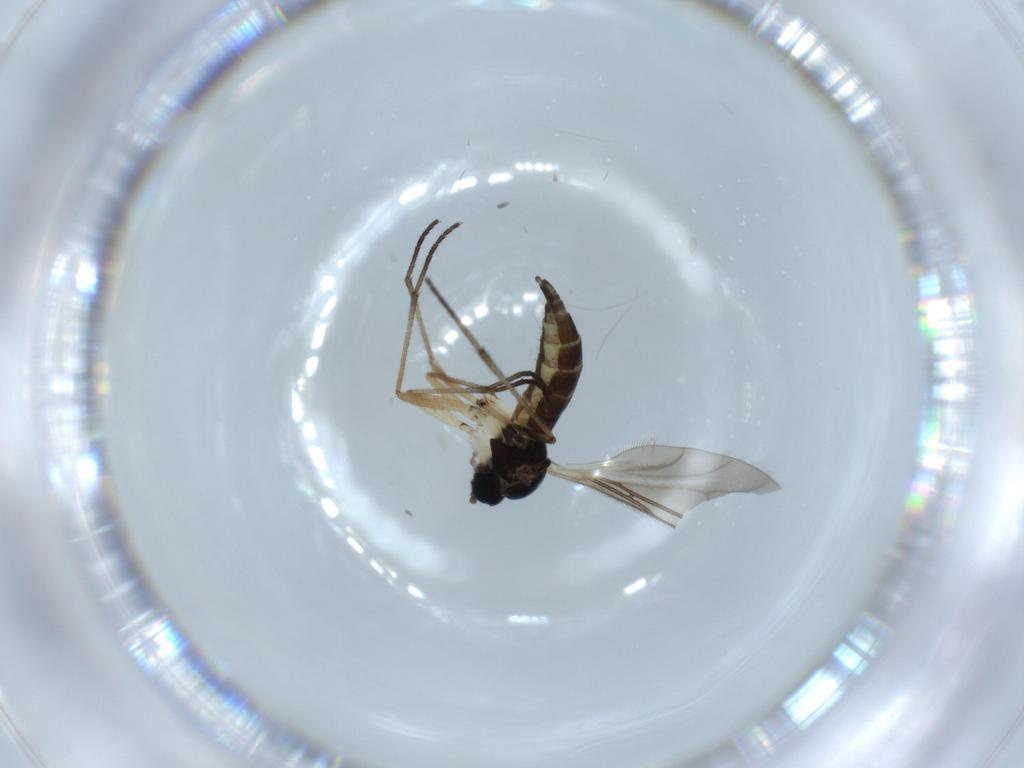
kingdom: Animalia
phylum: Arthropoda
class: Insecta
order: Diptera
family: Sciaridae
